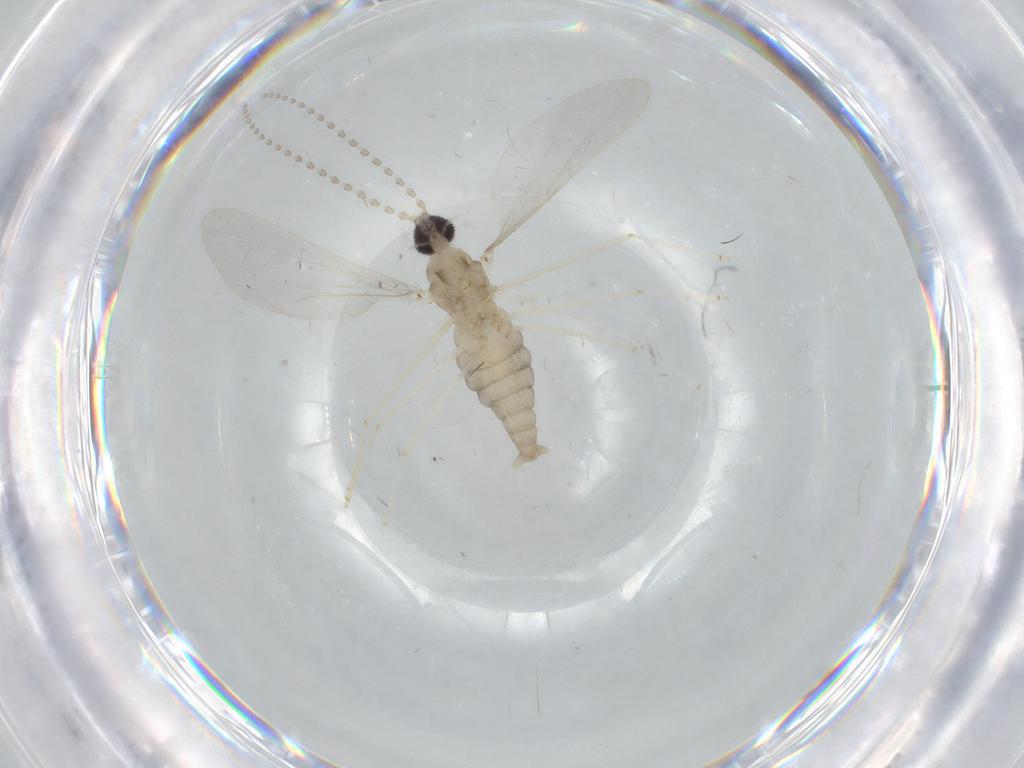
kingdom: Animalia
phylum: Arthropoda
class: Insecta
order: Diptera
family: Cecidomyiidae
